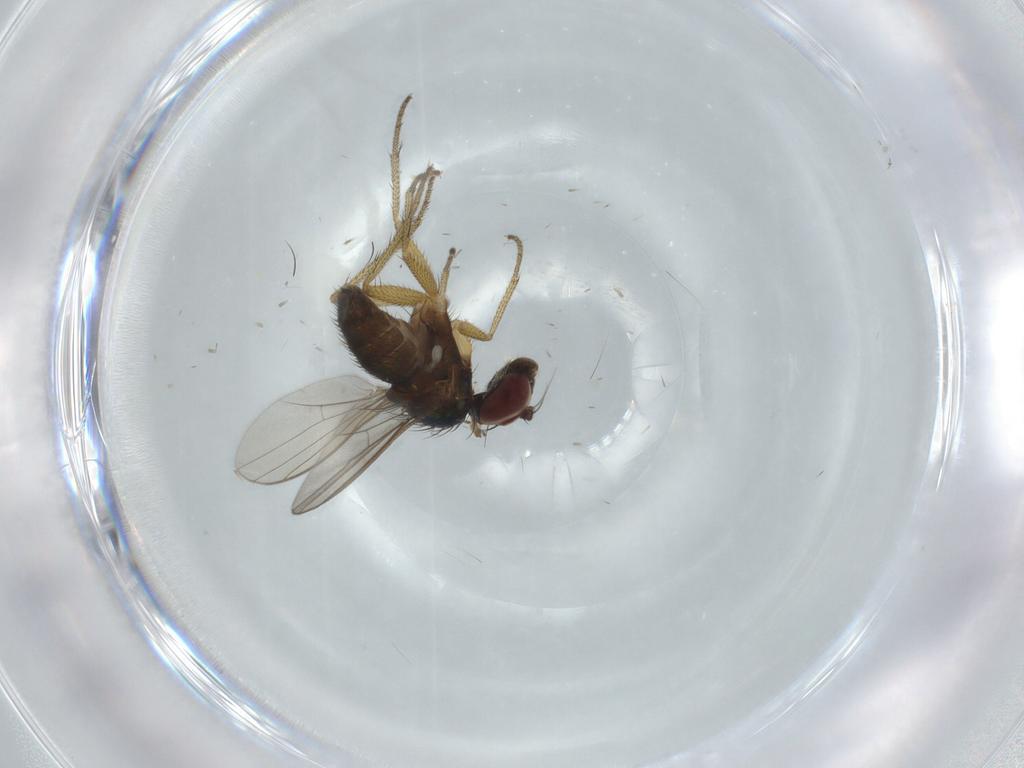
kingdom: Animalia
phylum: Arthropoda
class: Insecta
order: Diptera
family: Dolichopodidae
